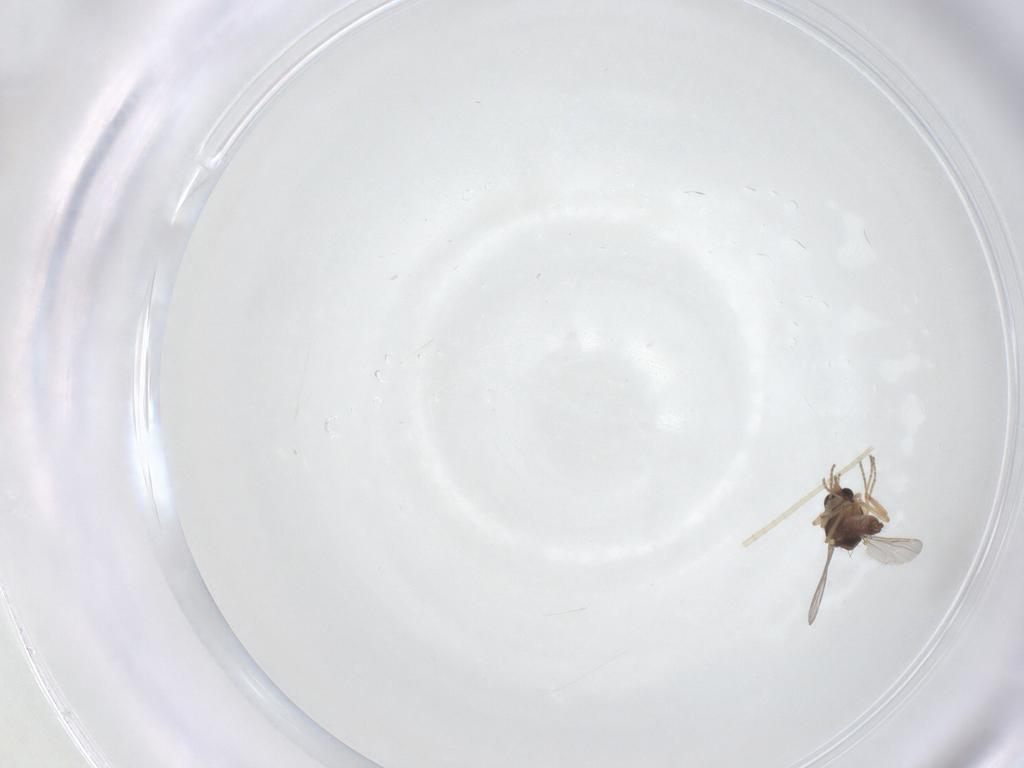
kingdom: Animalia
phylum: Arthropoda
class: Insecta
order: Diptera
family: Ceratopogonidae
